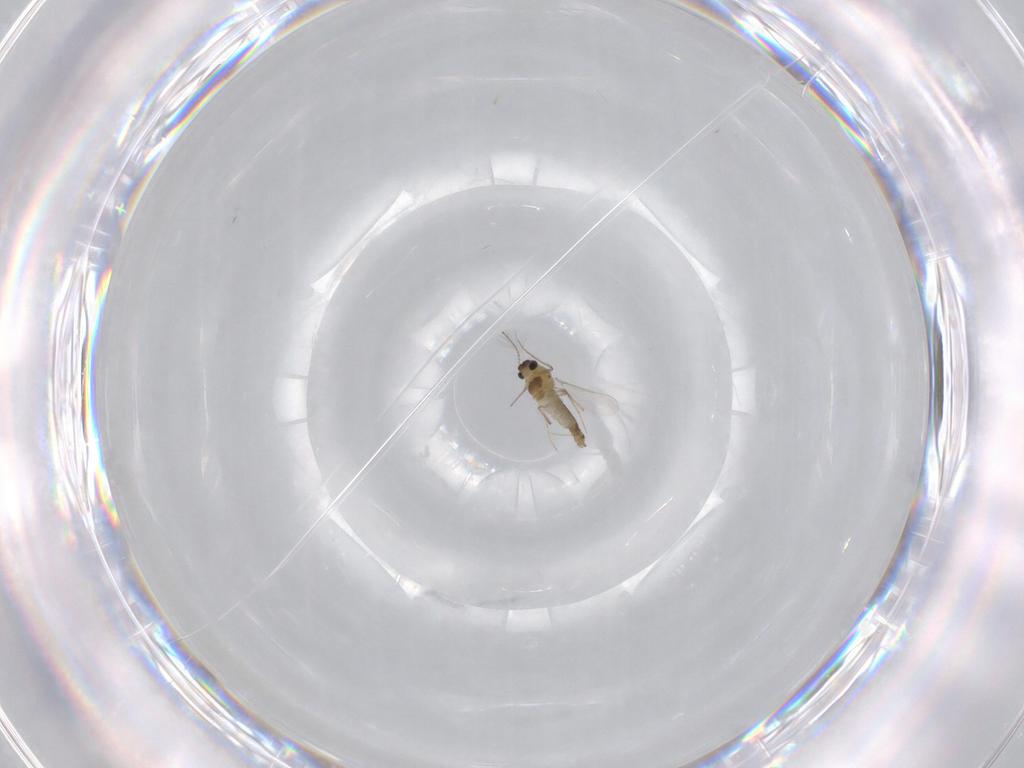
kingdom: Animalia
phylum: Arthropoda
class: Insecta
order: Diptera
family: Chironomidae
